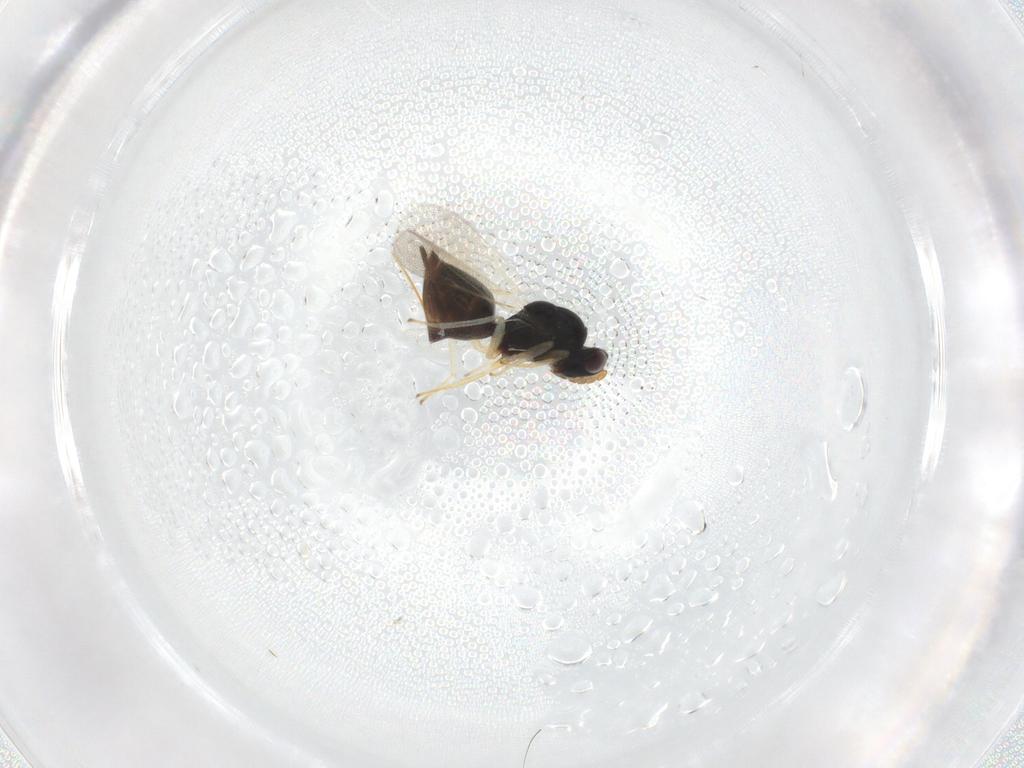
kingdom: Animalia
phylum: Arthropoda
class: Insecta
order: Hymenoptera
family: Eulophidae
